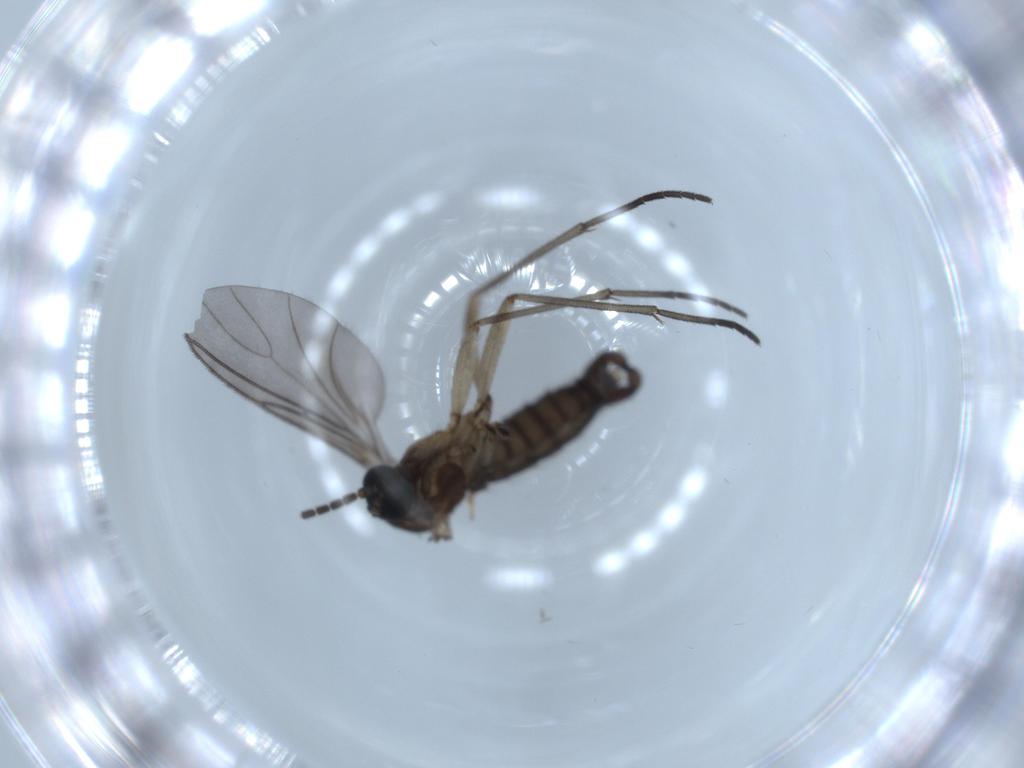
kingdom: Animalia
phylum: Arthropoda
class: Insecta
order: Diptera
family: Sciaridae
